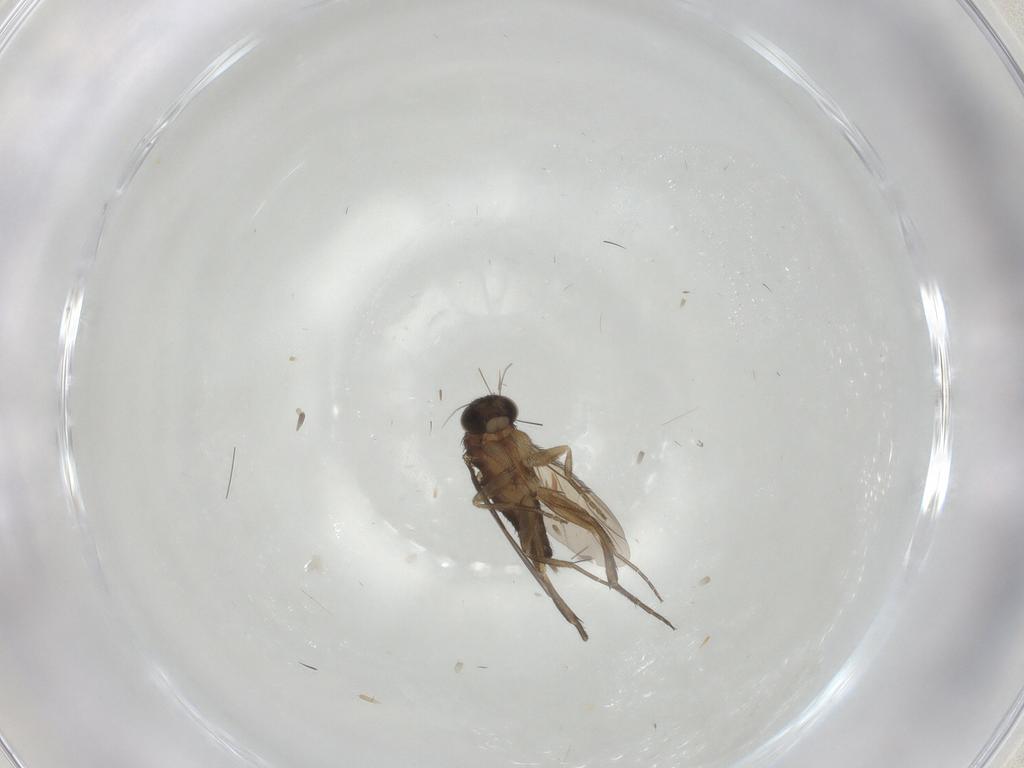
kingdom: Animalia
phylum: Arthropoda
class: Insecta
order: Diptera
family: Phoridae
